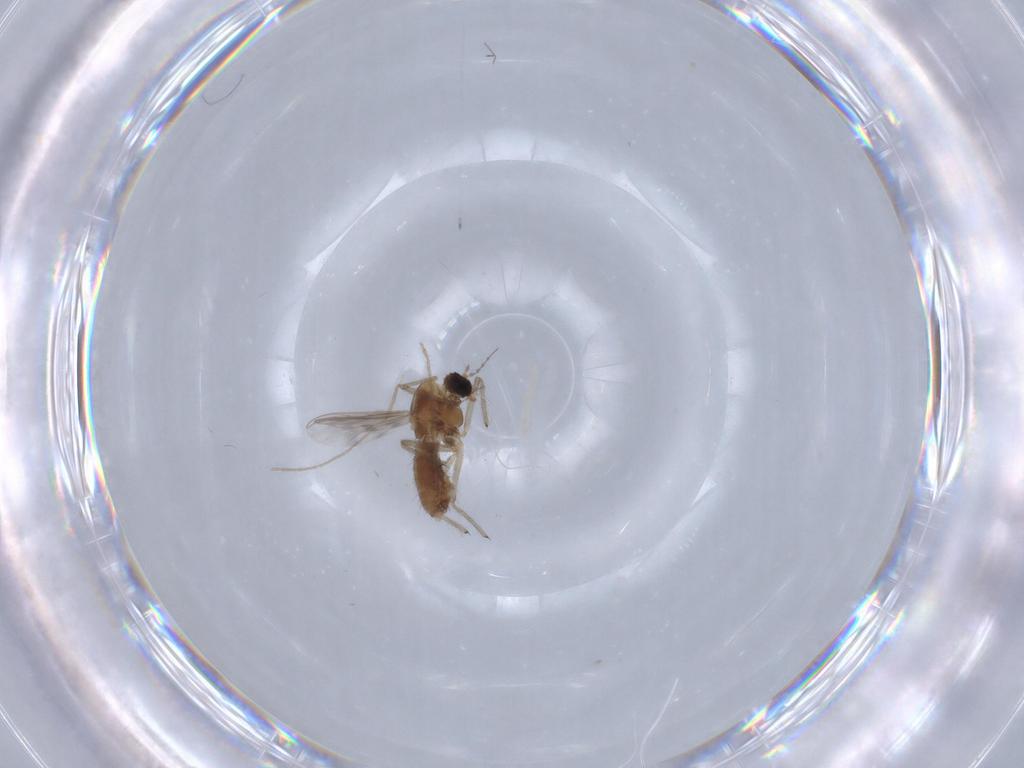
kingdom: Animalia
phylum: Arthropoda
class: Insecta
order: Diptera
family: Chironomidae
